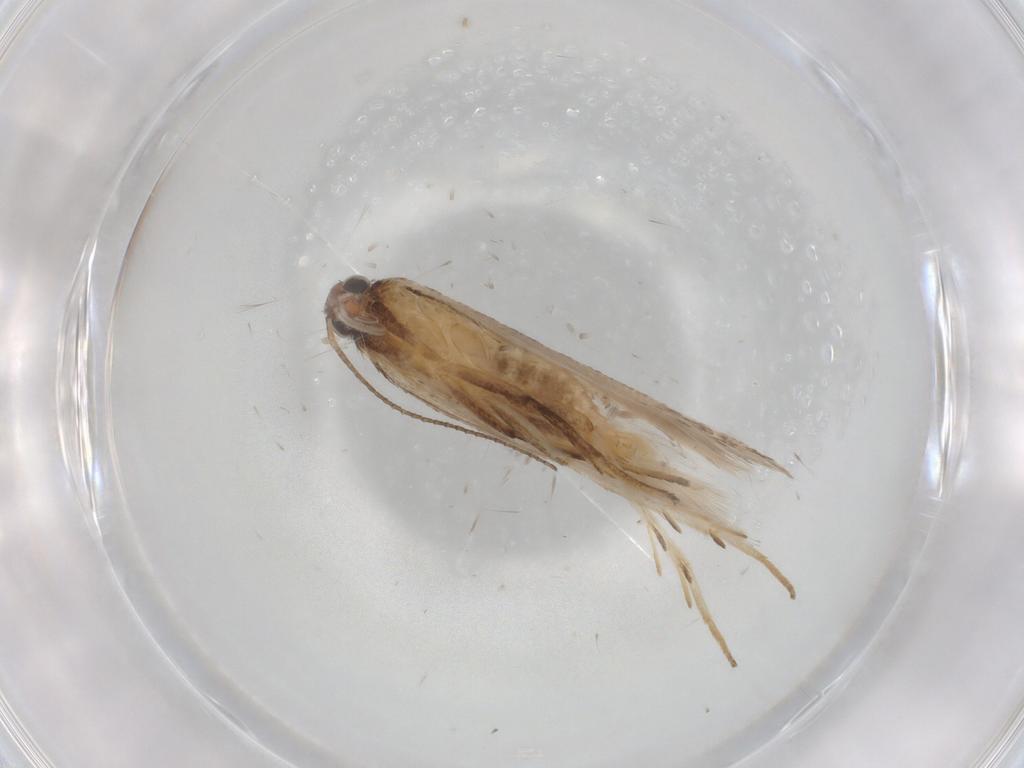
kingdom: Animalia
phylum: Arthropoda
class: Insecta
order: Lepidoptera
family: Gelechiidae
